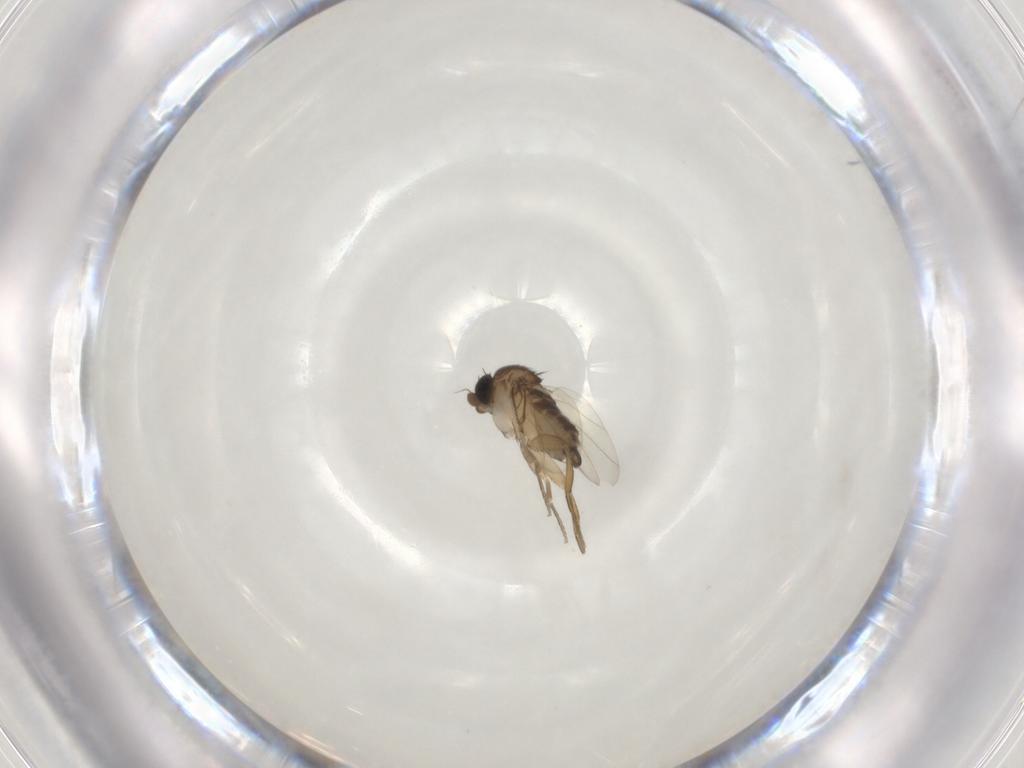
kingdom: Animalia
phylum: Arthropoda
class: Insecta
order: Diptera
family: Phoridae
